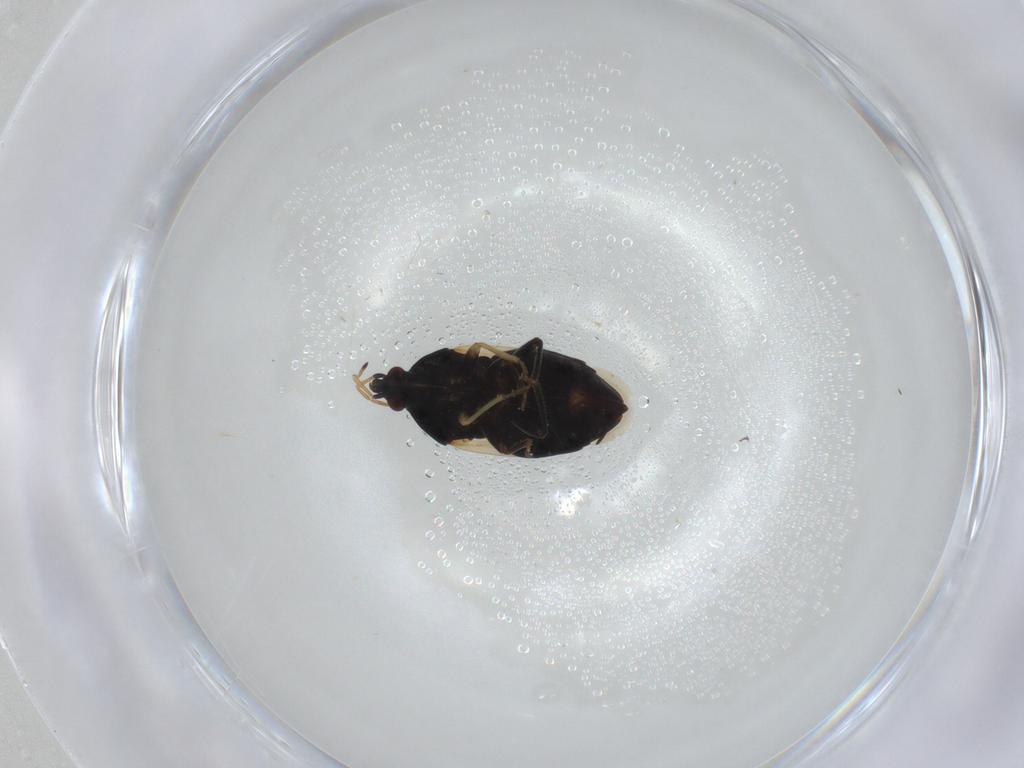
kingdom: Animalia
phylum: Arthropoda
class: Insecta
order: Hemiptera
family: Anthocoridae
